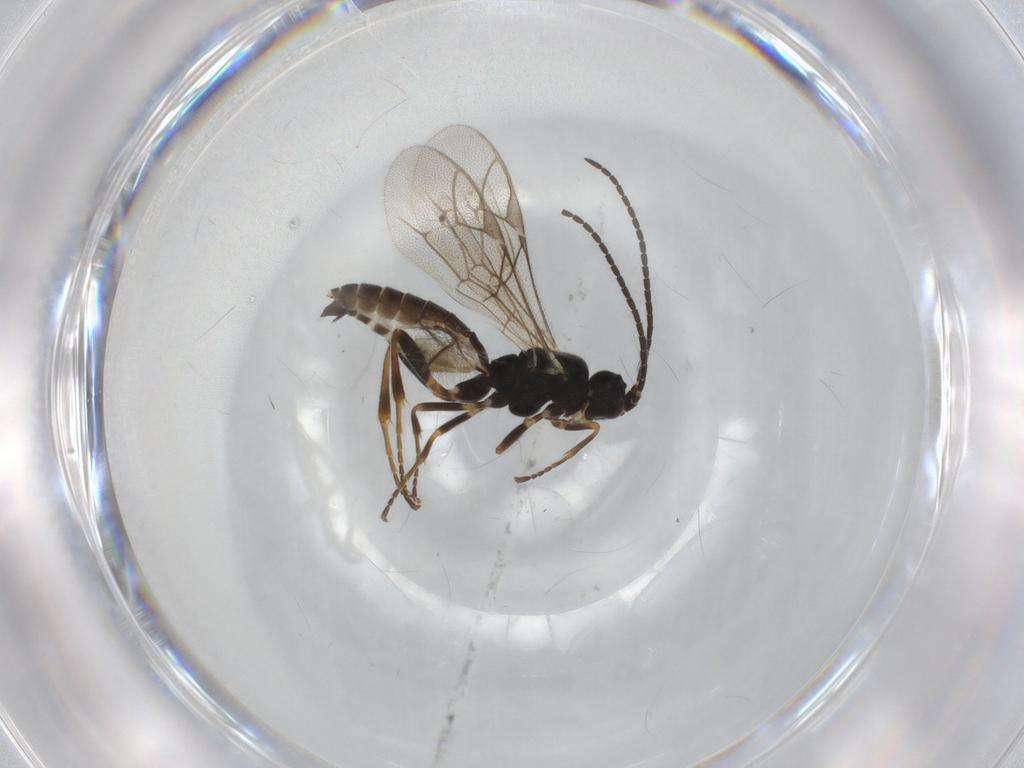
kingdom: Animalia
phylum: Arthropoda
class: Insecta
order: Hymenoptera
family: Ichneumonidae
